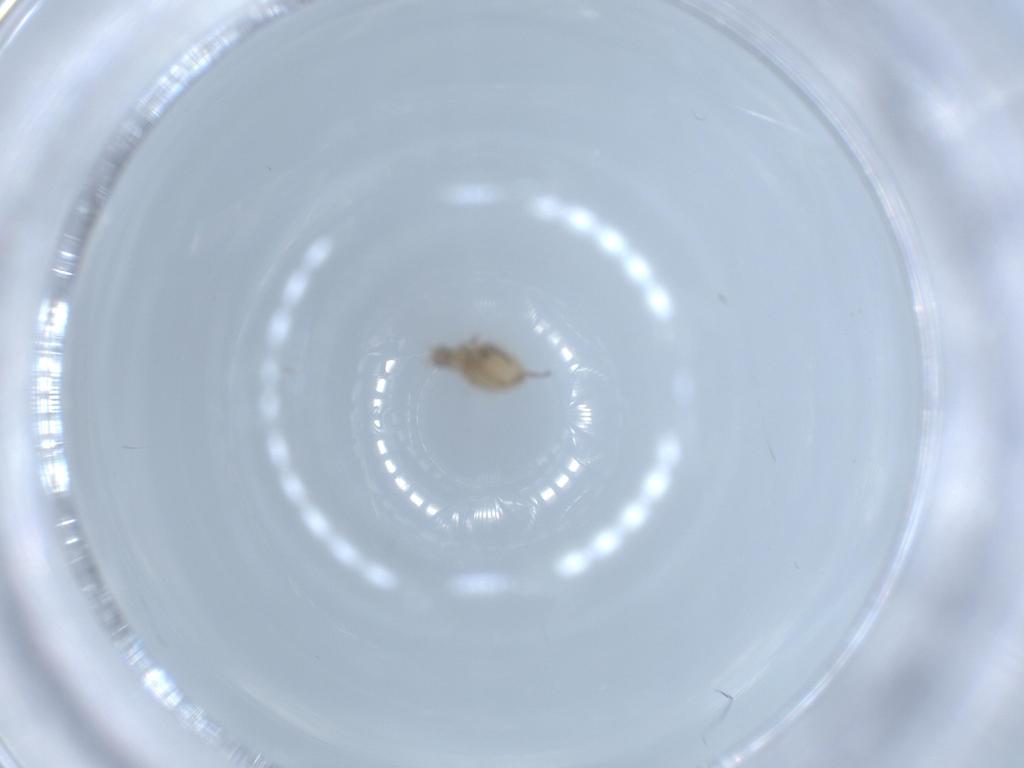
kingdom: Animalia
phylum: Arthropoda
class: Insecta
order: Diptera
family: Phoridae
